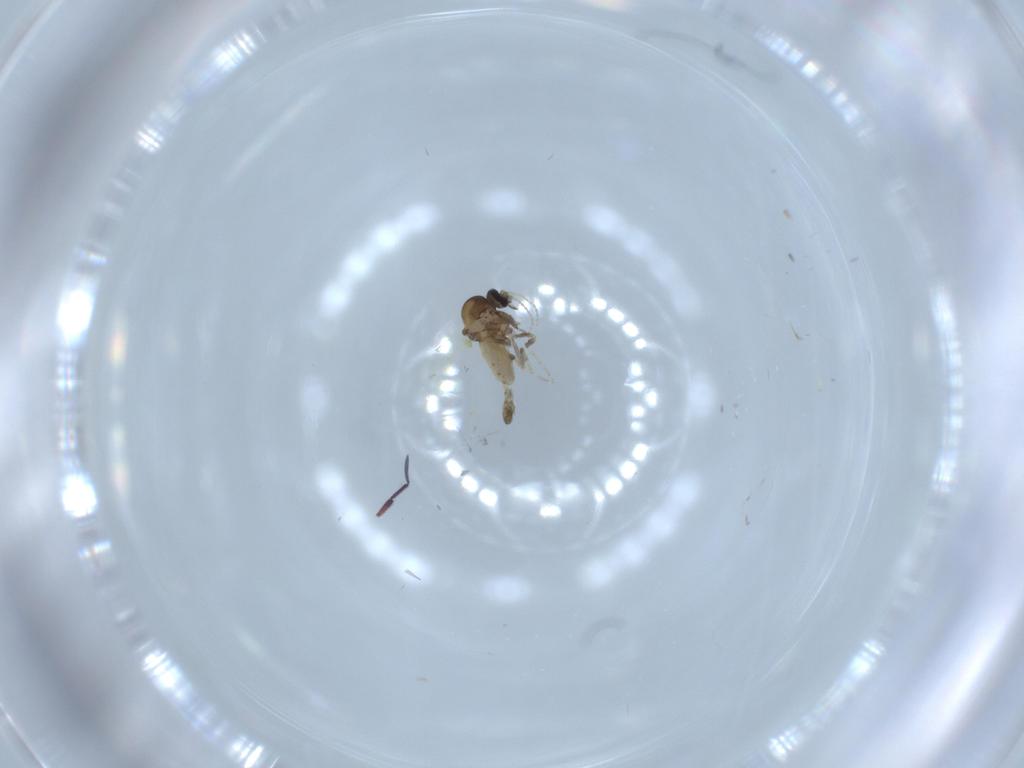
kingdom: Animalia
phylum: Arthropoda
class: Insecta
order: Diptera
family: Ceratopogonidae
